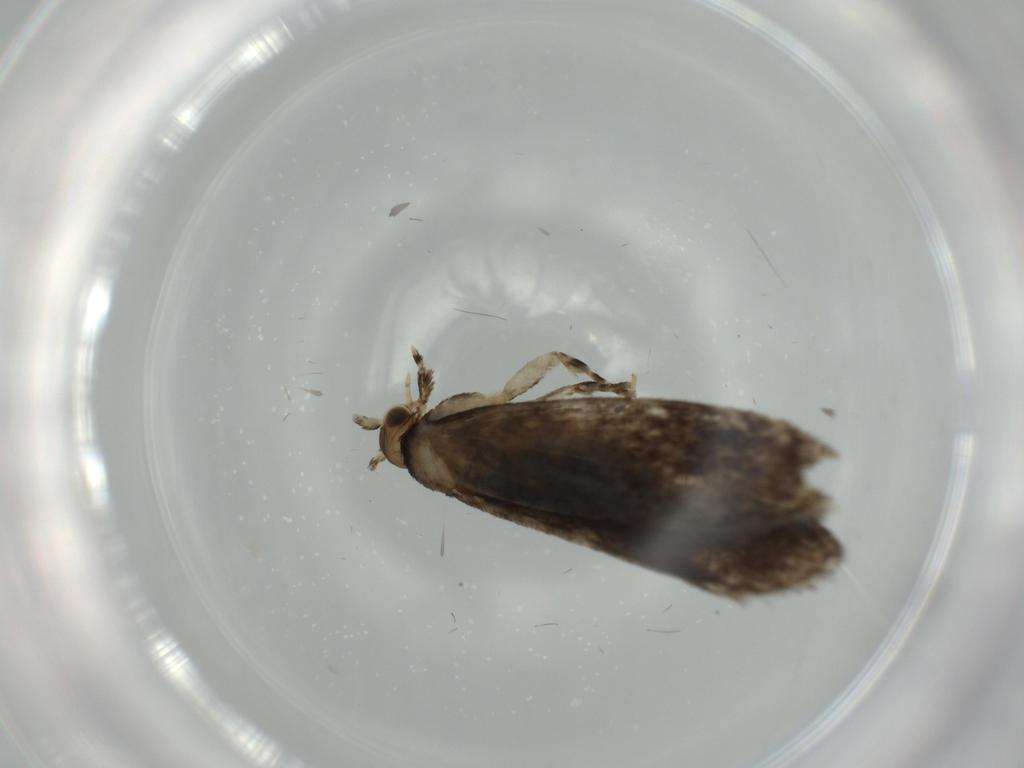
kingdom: Animalia
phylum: Arthropoda
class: Insecta
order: Lepidoptera
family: Tineidae
